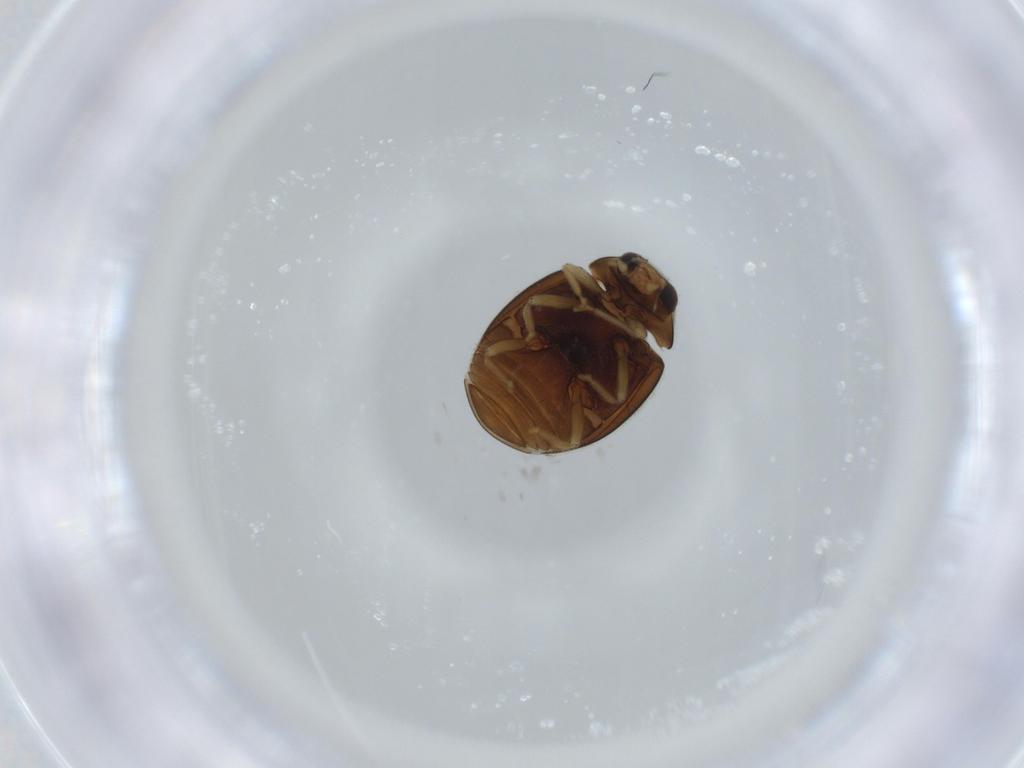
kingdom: Animalia
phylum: Arthropoda
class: Insecta
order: Coleoptera
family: Coccinellidae
